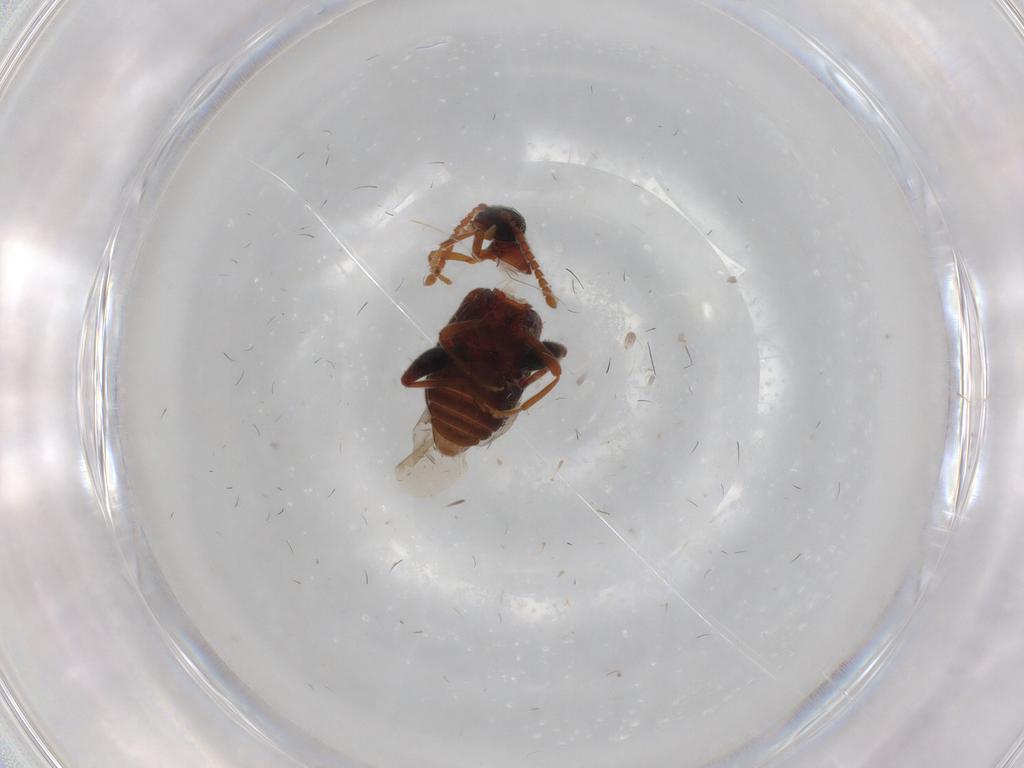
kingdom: Animalia
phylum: Arthropoda
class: Insecta
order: Coleoptera
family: Aderidae
